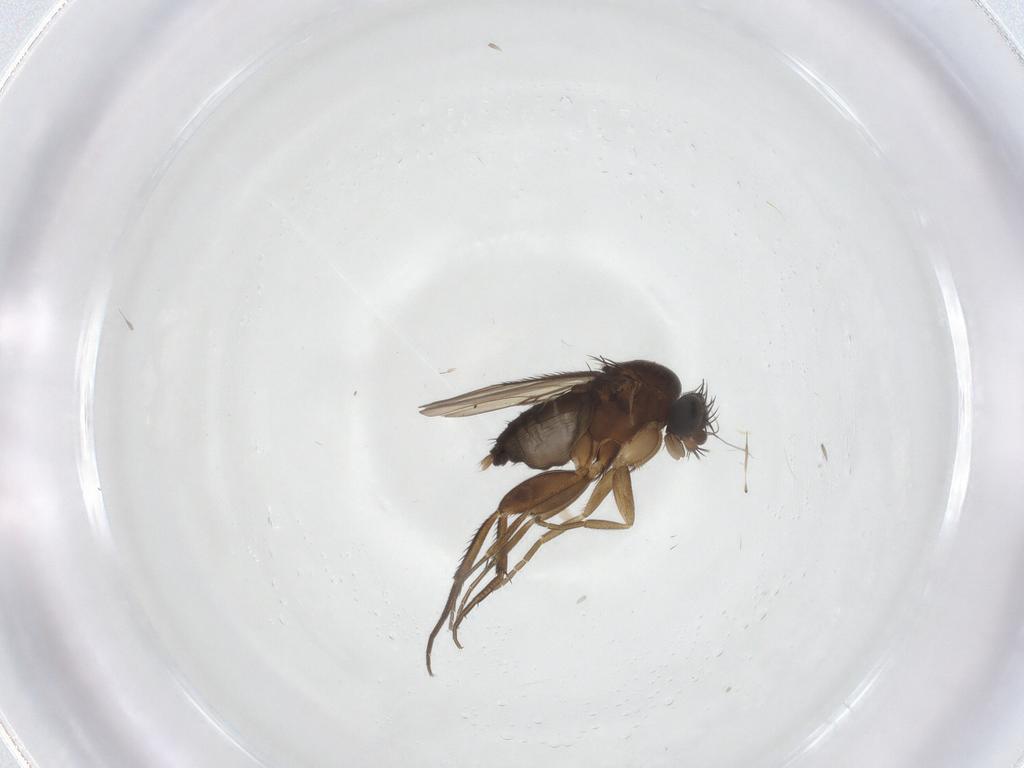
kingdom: Animalia
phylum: Arthropoda
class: Insecta
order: Diptera
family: Phoridae
